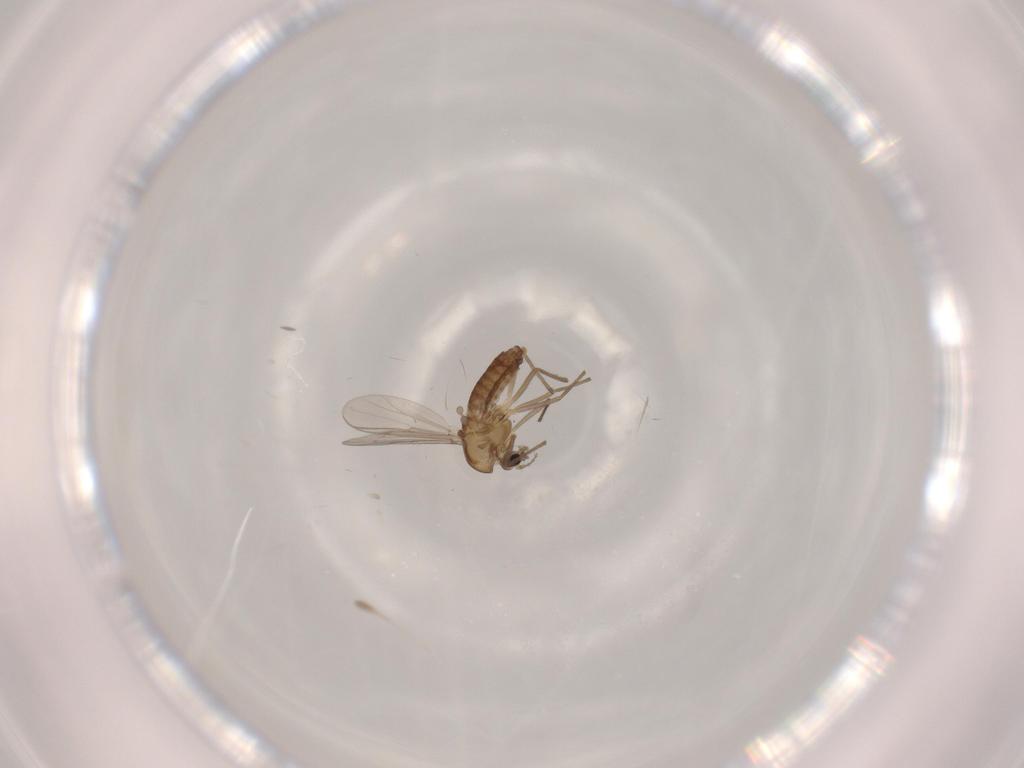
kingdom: Animalia
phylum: Arthropoda
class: Insecta
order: Diptera
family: Chironomidae
